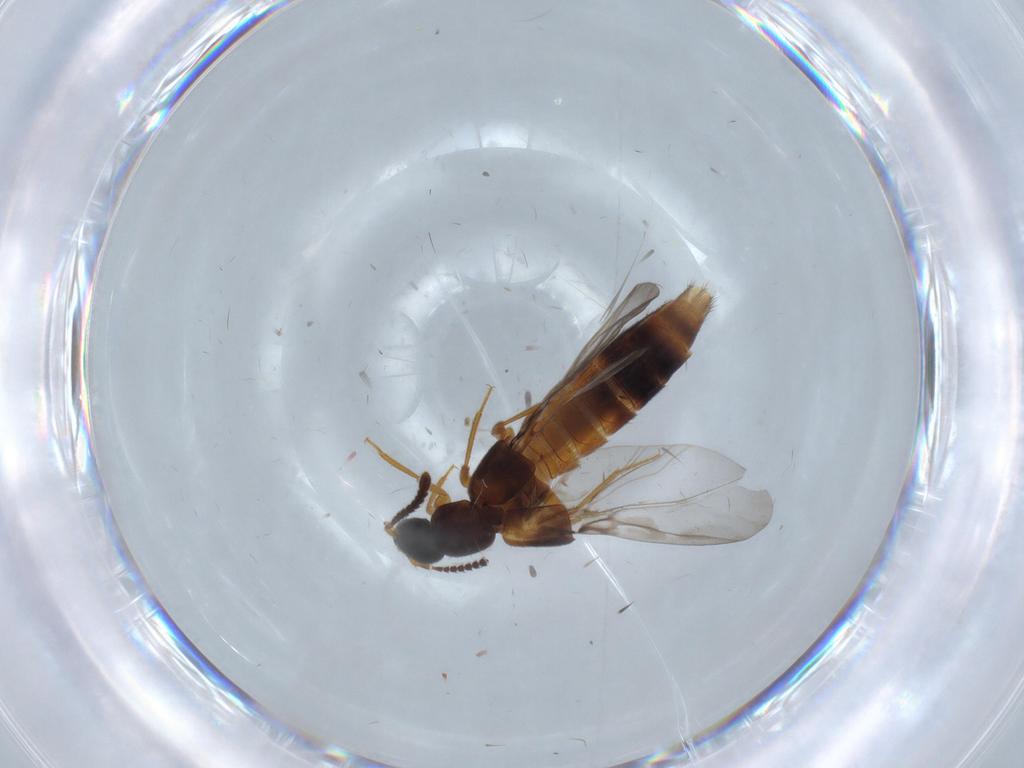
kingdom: Animalia
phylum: Arthropoda
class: Insecta
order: Coleoptera
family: Staphylinidae
